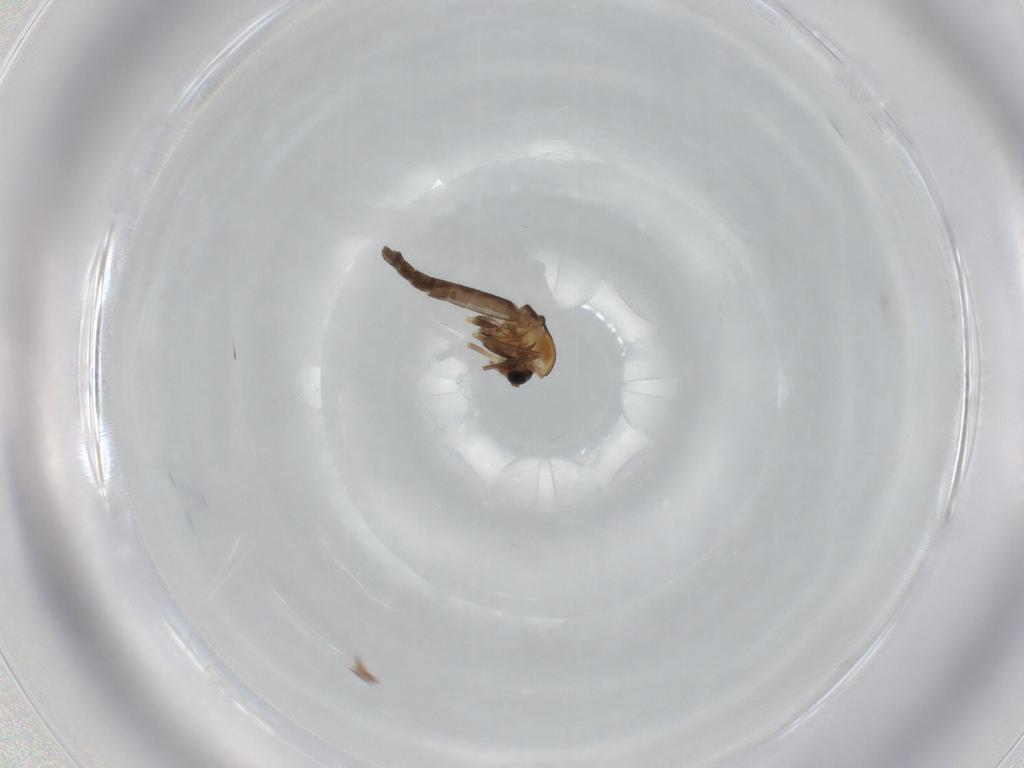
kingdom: Animalia
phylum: Arthropoda
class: Insecta
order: Diptera
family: Chironomidae
